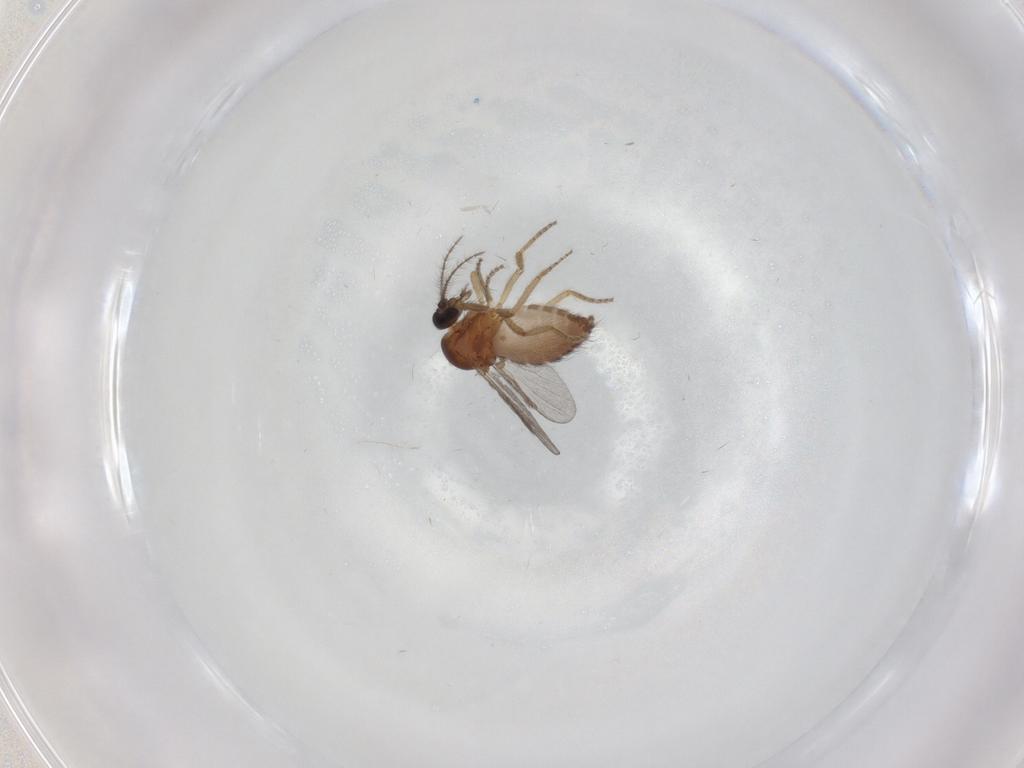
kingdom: Animalia
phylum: Arthropoda
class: Insecta
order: Diptera
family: Ceratopogonidae
